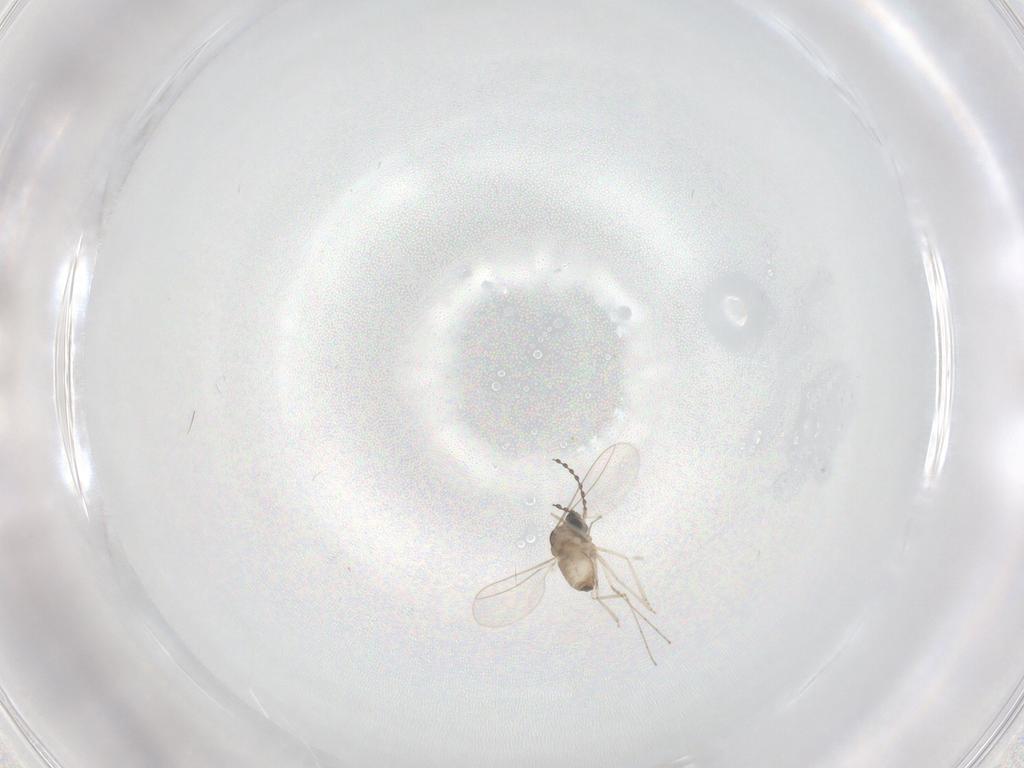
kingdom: Animalia
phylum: Arthropoda
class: Insecta
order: Diptera
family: Cecidomyiidae
